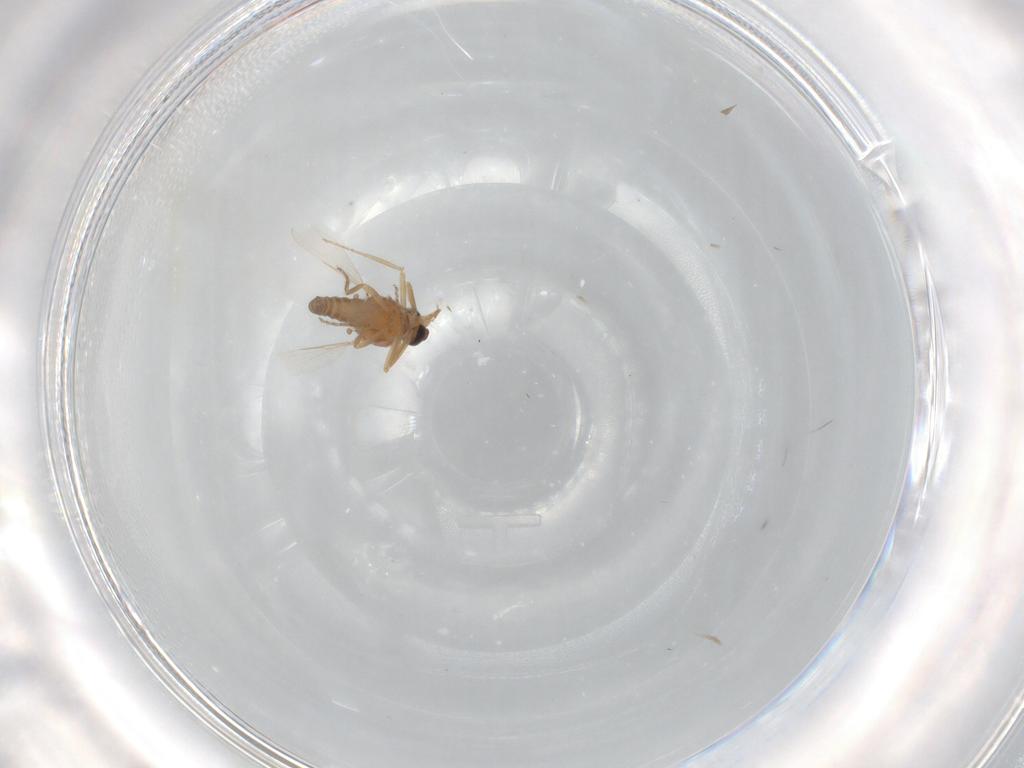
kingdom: Animalia
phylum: Arthropoda
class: Insecta
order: Diptera
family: Ceratopogonidae
